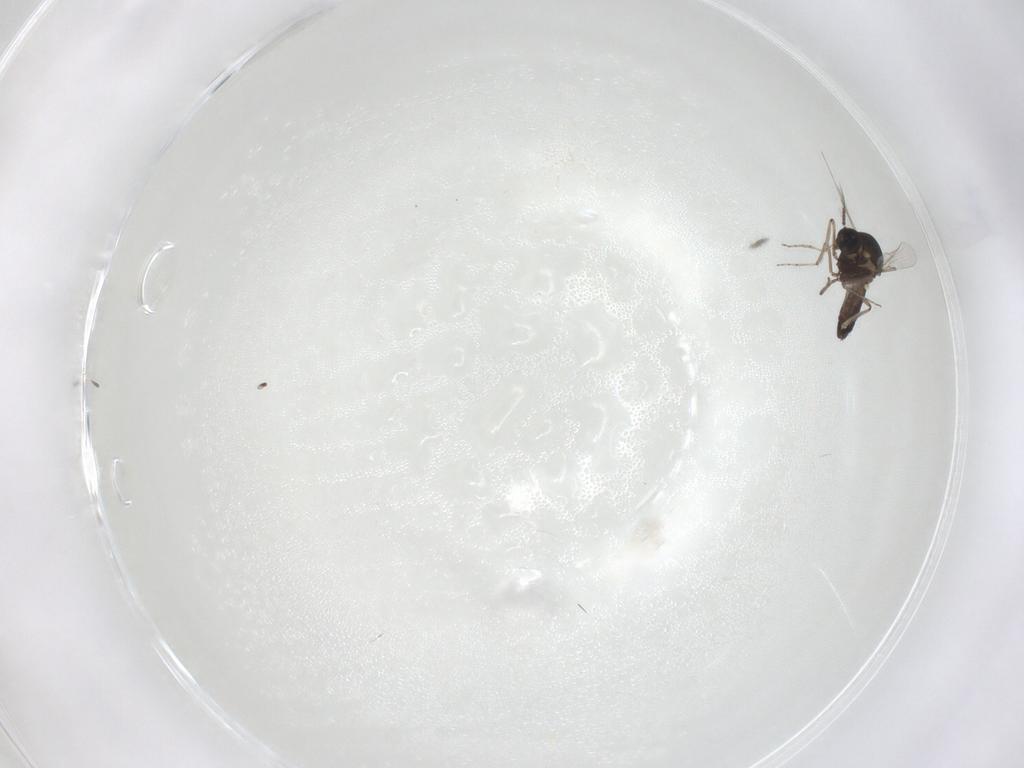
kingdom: Animalia
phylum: Arthropoda
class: Insecta
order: Diptera
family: Ceratopogonidae
